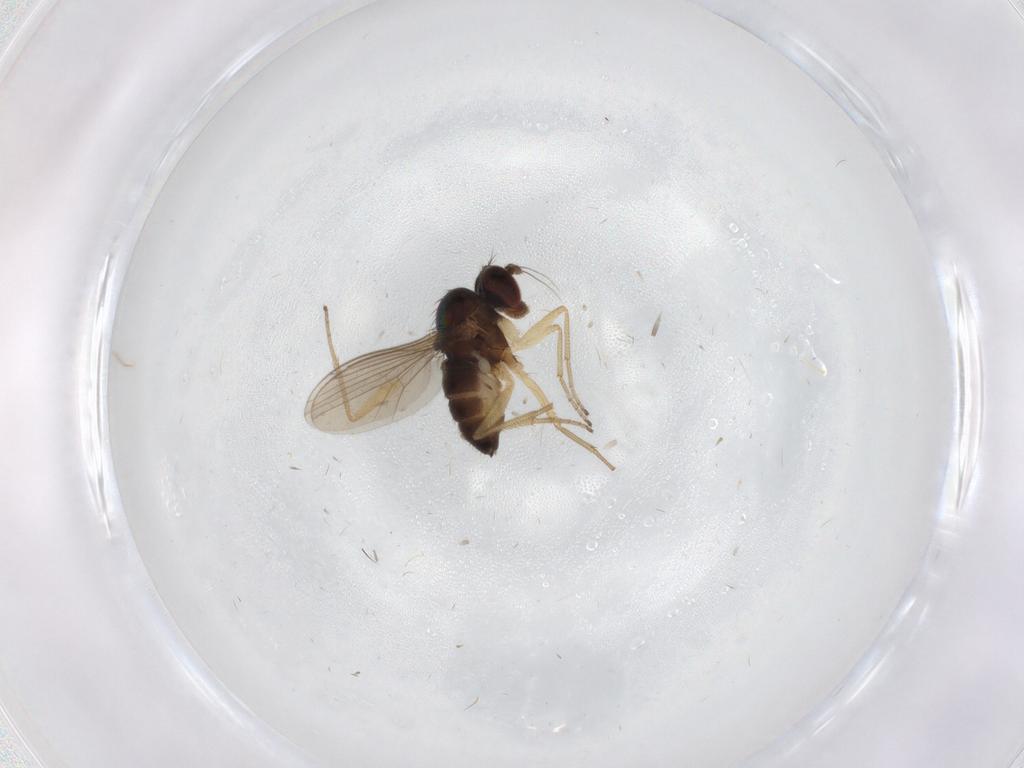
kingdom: Animalia
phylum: Arthropoda
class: Insecta
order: Diptera
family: Dolichopodidae
